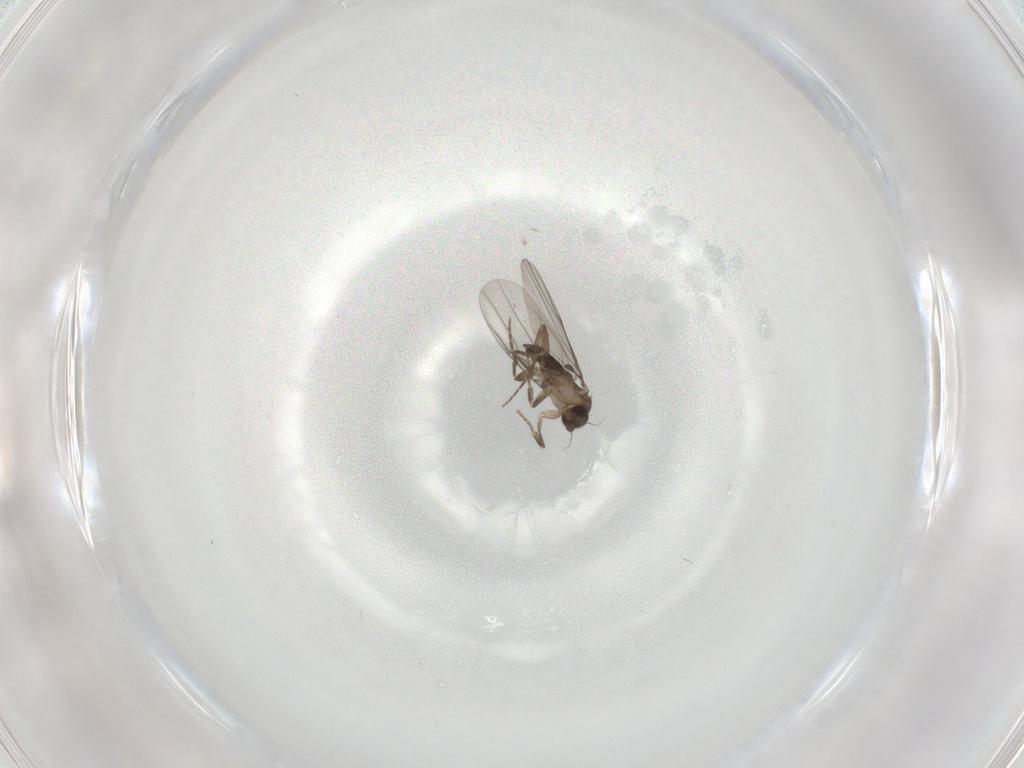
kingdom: Animalia
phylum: Arthropoda
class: Insecta
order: Diptera
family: Phoridae
